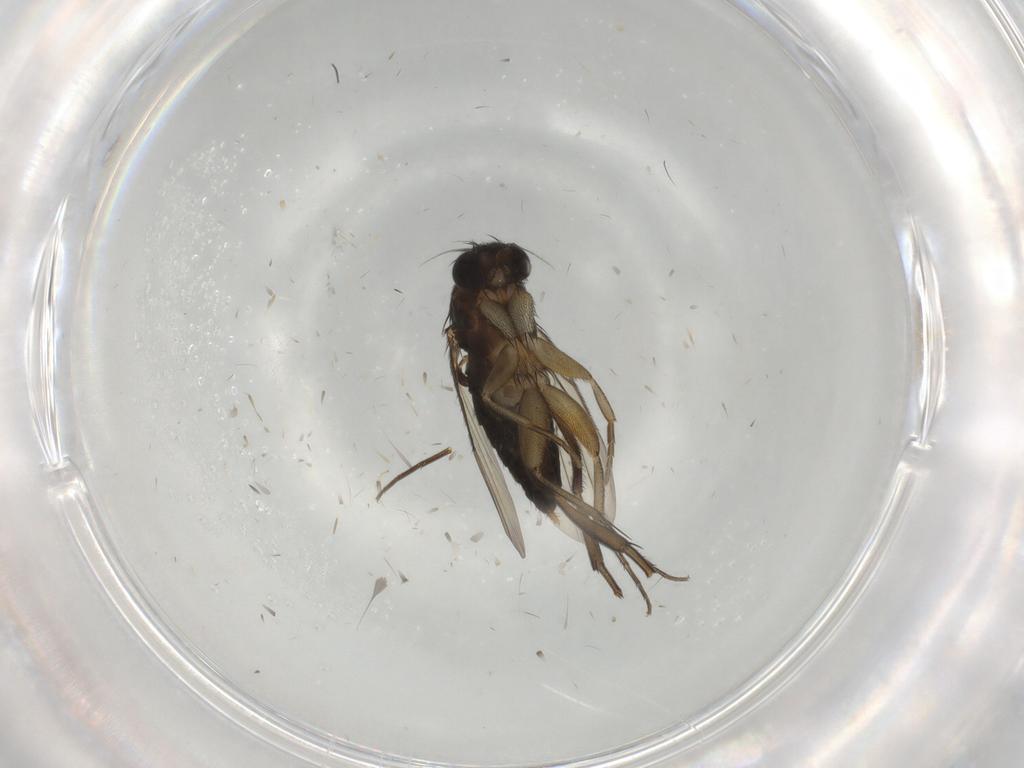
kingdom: Animalia
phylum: Arthropoda
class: Insecta
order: Diptera
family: Phoridae
